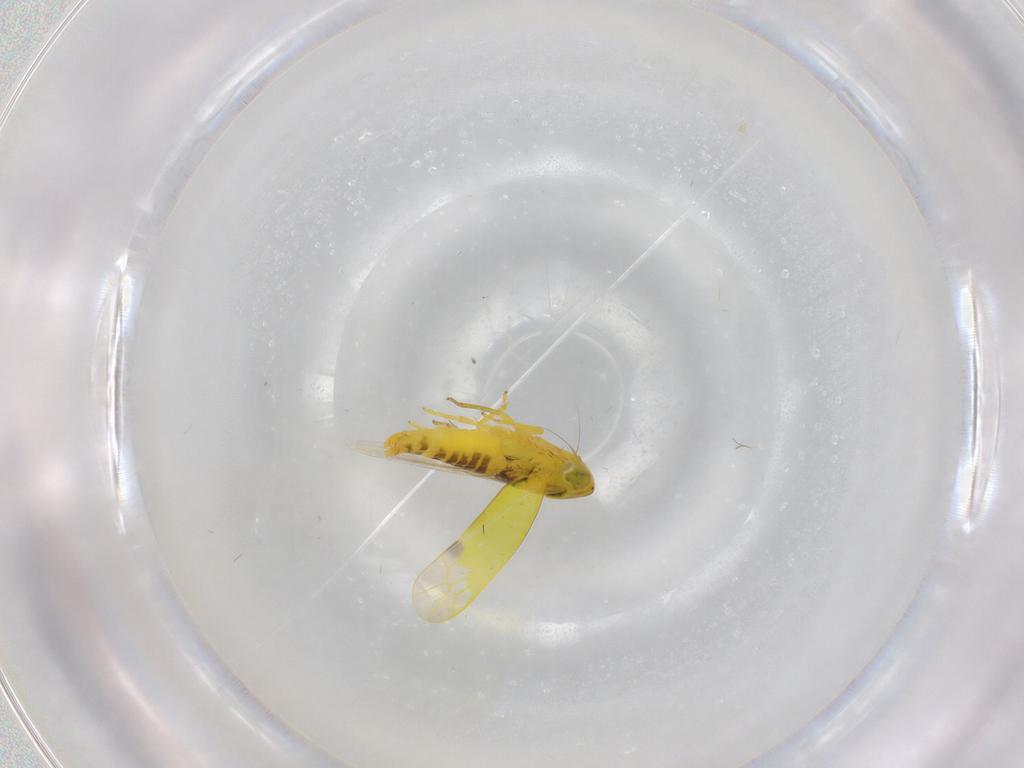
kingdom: Animalia
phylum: Arthropoda
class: Insecta
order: Hemiptera
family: Cicadellidae
